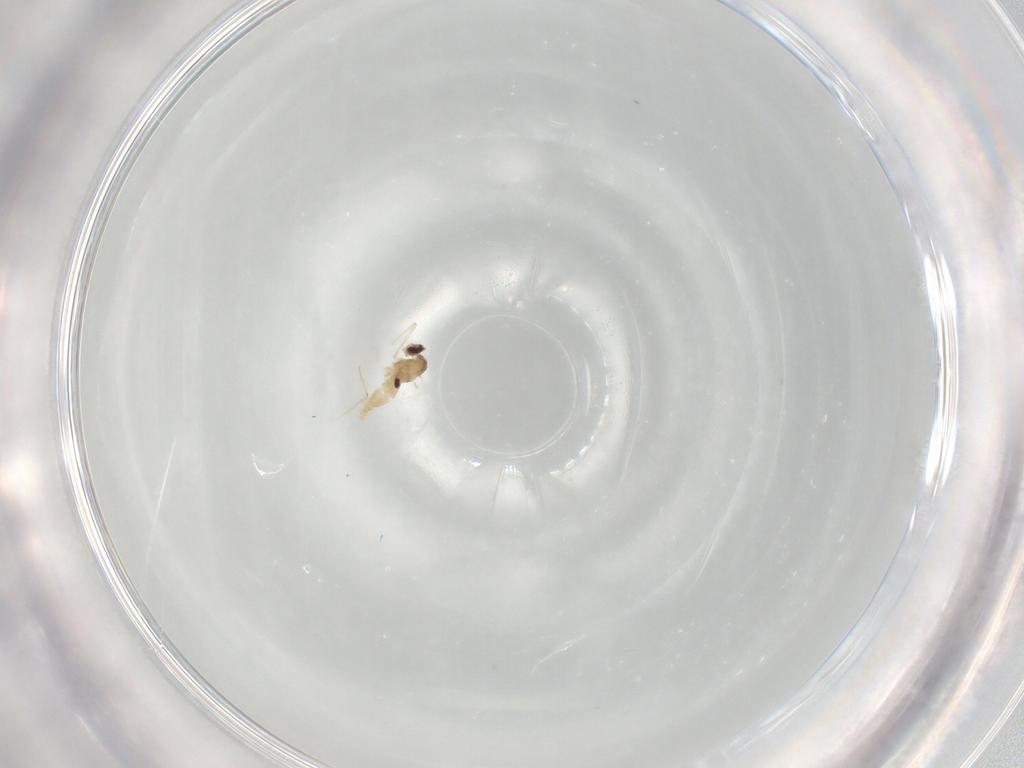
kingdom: Animalia
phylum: Arthropoda
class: Insecta
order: Diptera
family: Cecidomyiidae
